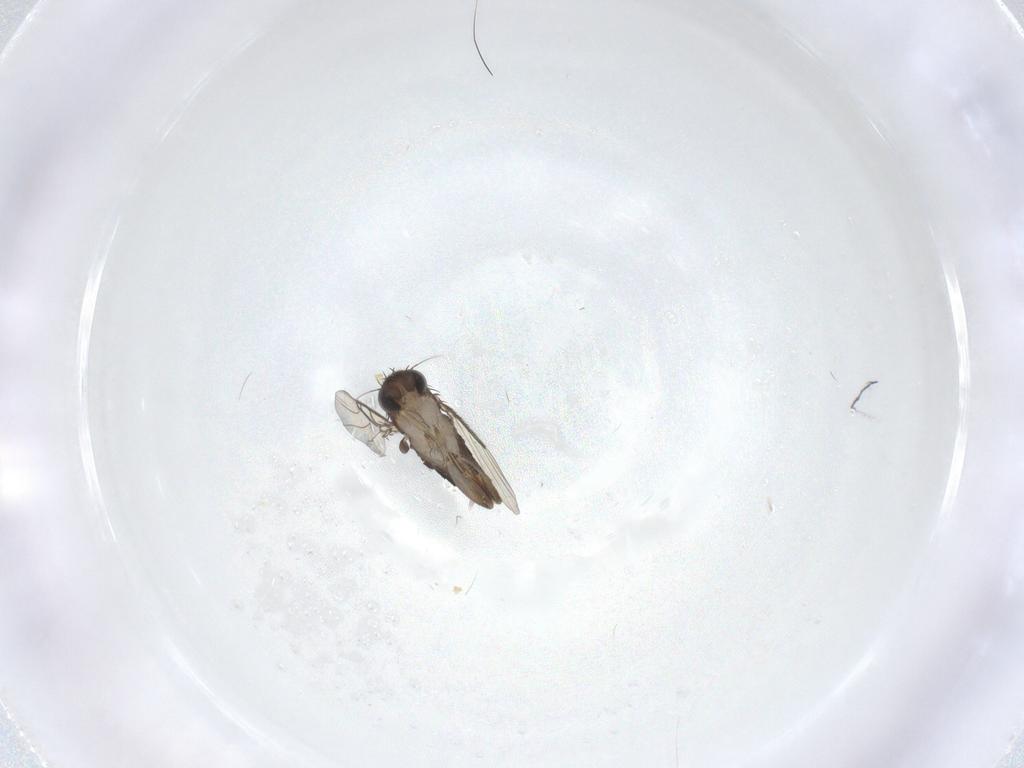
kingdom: Animalia
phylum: Arthropoda
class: Insecta
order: Diptera
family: Phoridae
